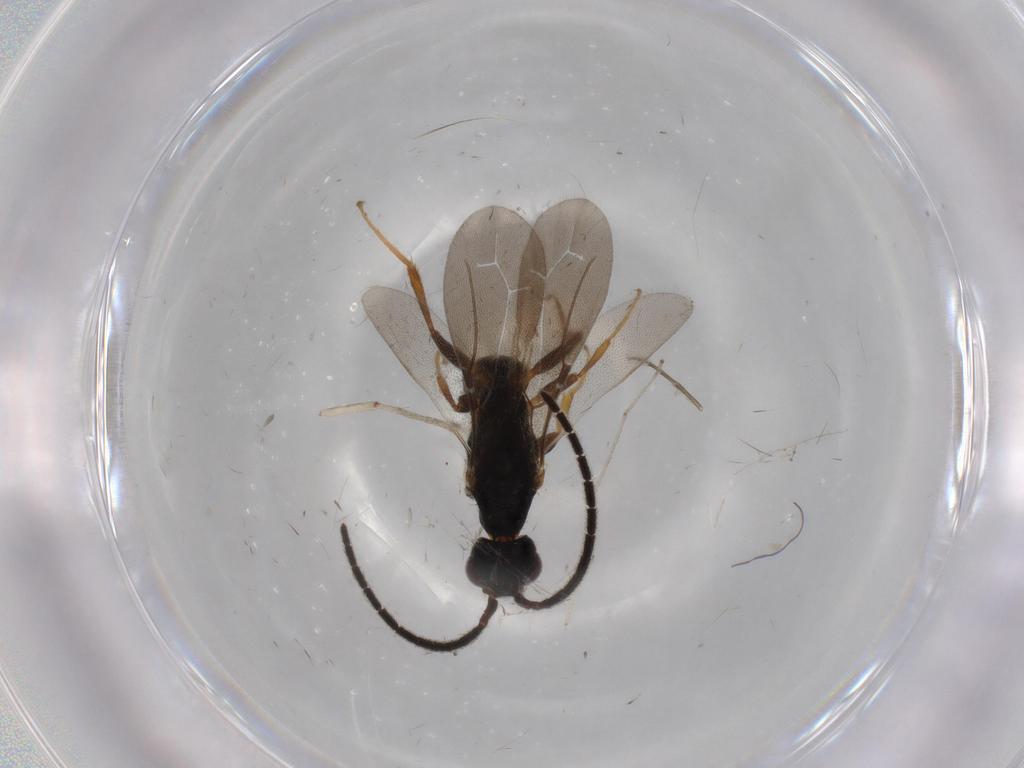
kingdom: Animalia
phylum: Arthropoda
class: Insecta
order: Hymenoptera
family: Bethylidae
